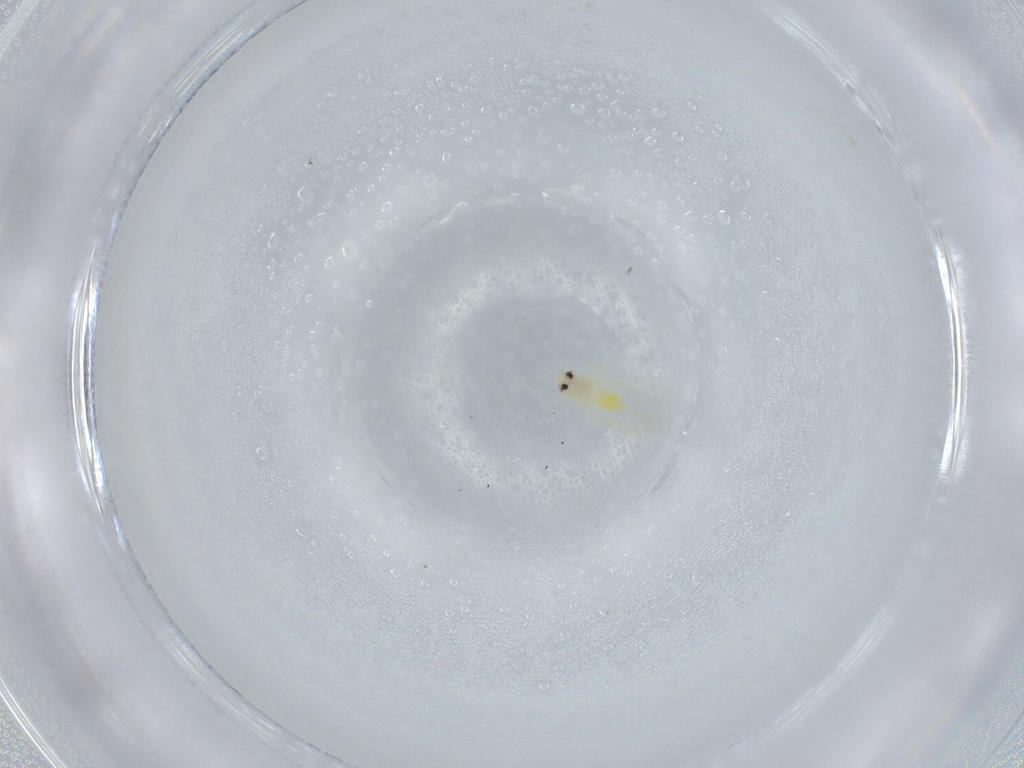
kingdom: Animalia
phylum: Arthropoda
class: Insecta
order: Hemiptera
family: Aleyrodidae
